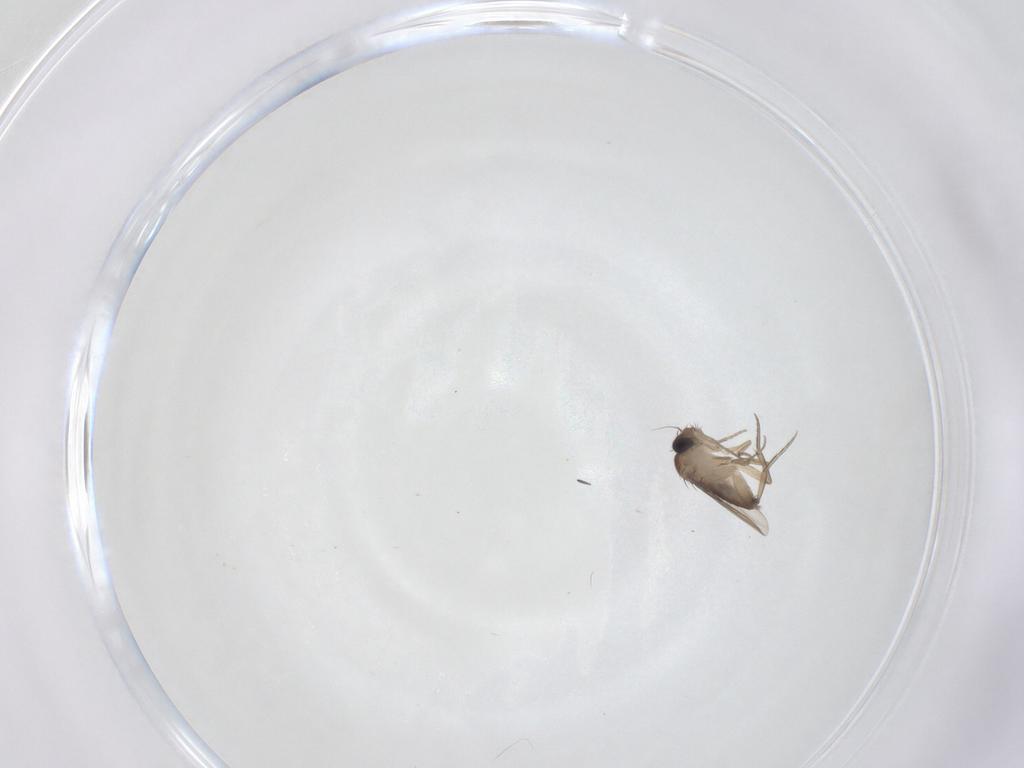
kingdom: Animalia
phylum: Arthropoda
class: Insecta
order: Diptera
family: Phoridae
